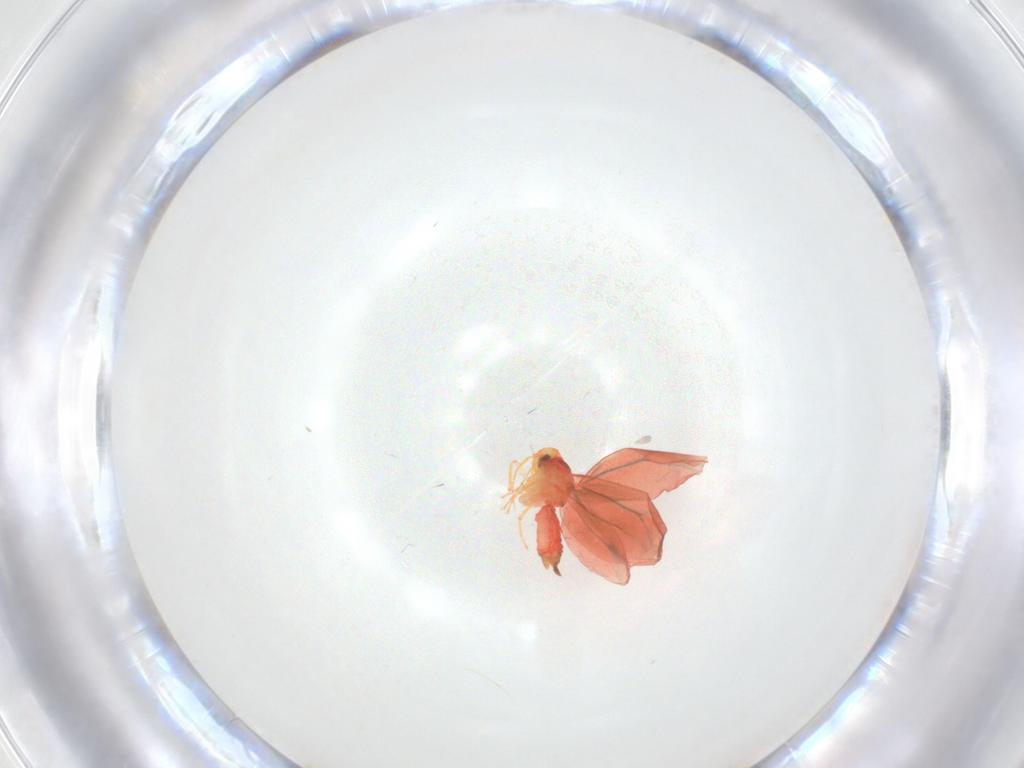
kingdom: Animalia
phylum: Arthropoda
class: Insecta
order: Hemiptera
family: Aleyrodidae
